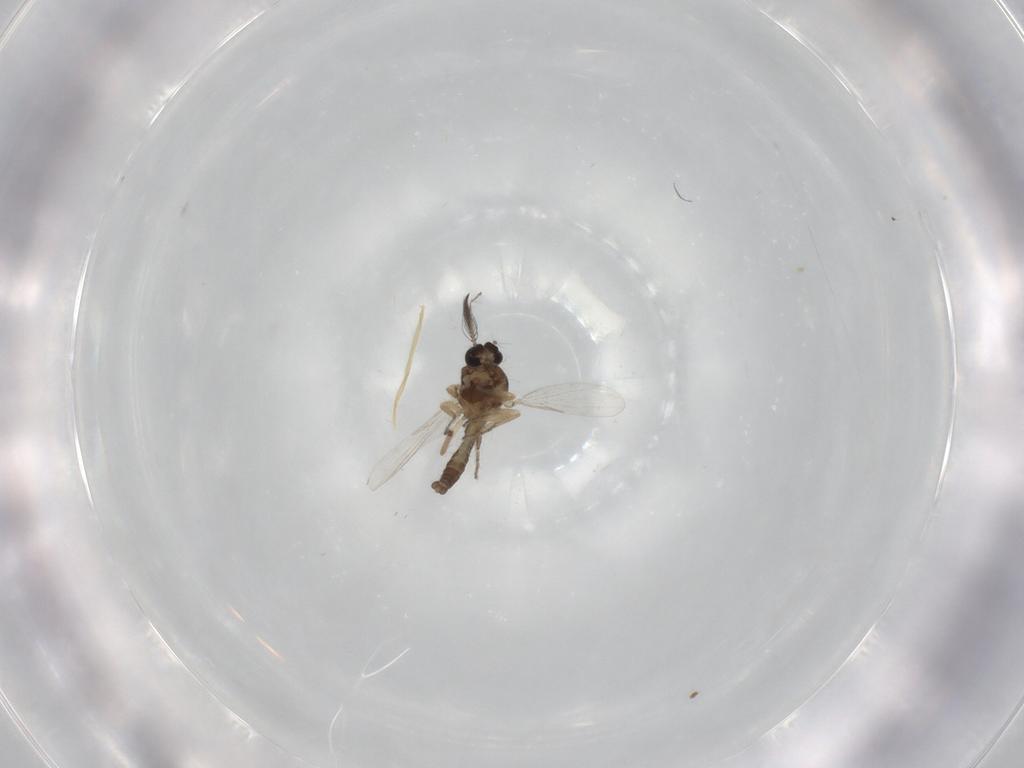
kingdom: Animalia
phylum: Arthropoda
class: Insecta
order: Diptera
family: Ceratopogonidae
